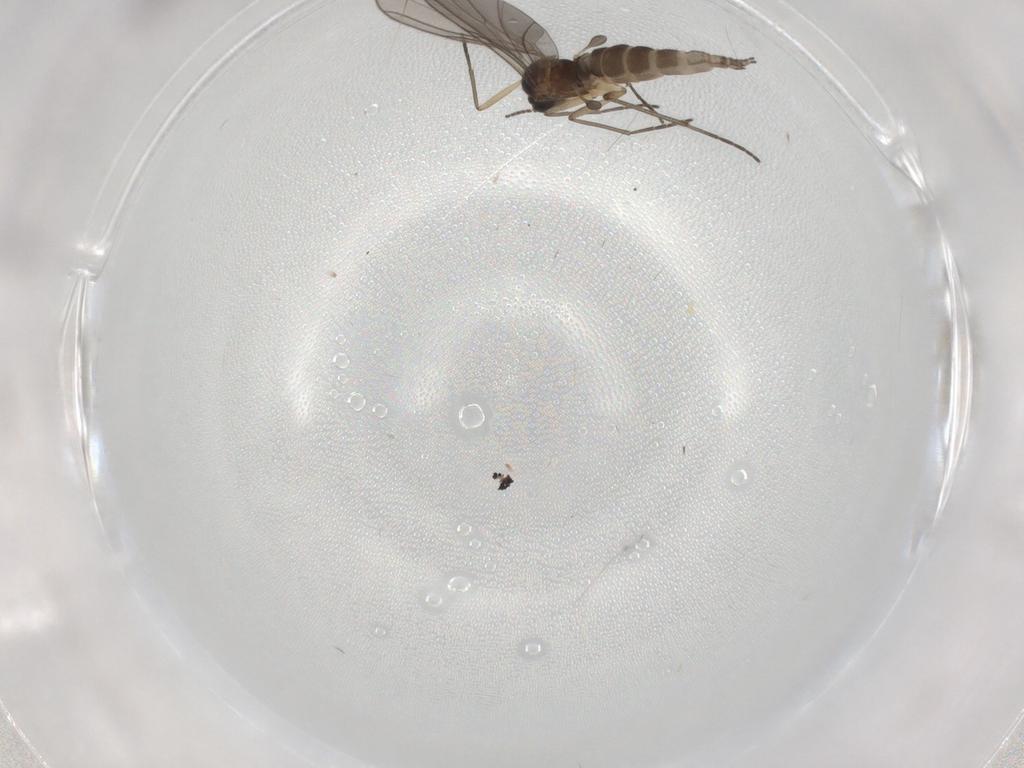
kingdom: Animalia
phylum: Arthropoda
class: Insecta
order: Diptera
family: Sciaridae
